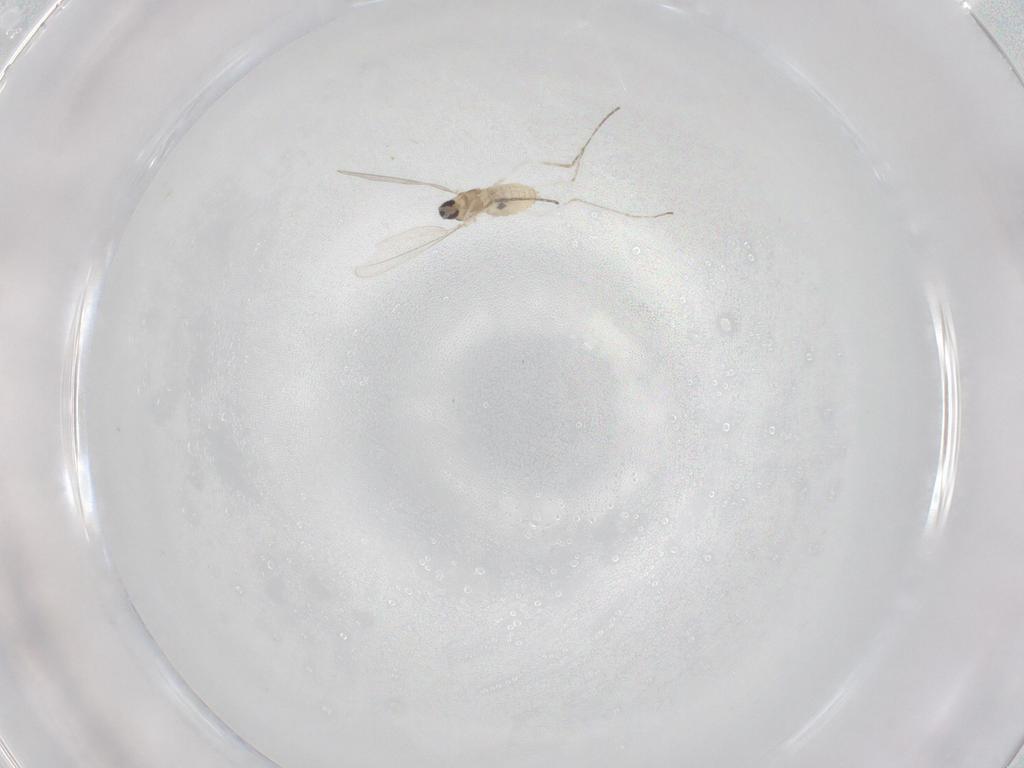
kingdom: Animalia
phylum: Arthropoda
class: Insecta
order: Diptera
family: Cecidomyiidae
